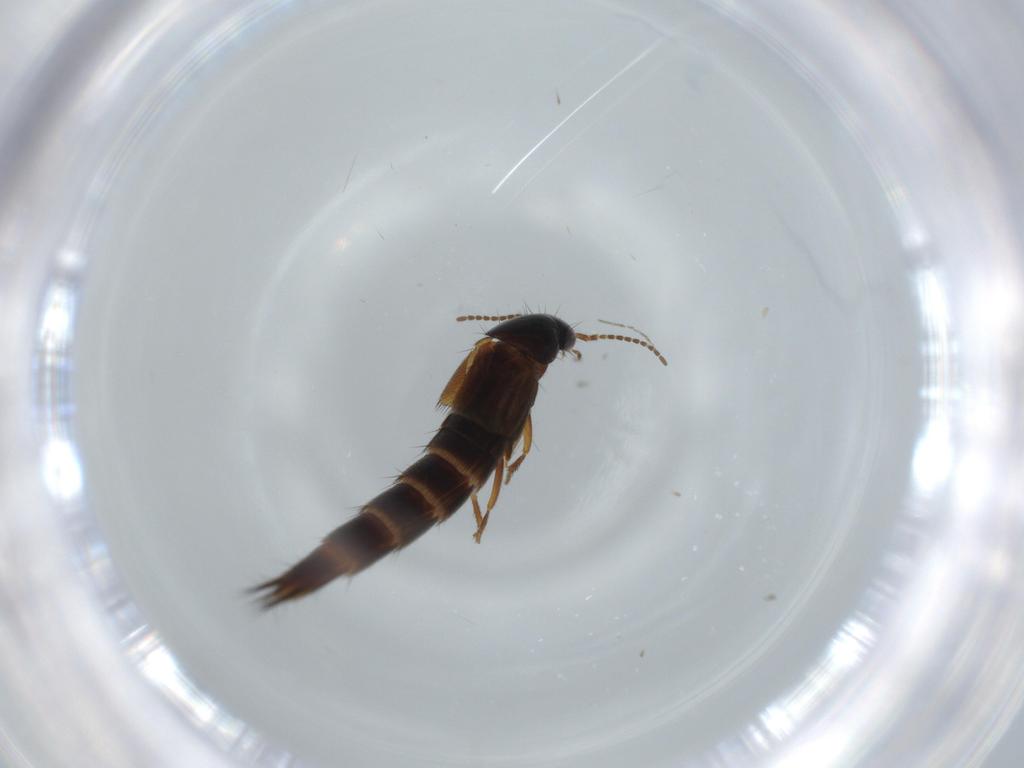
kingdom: Animalia
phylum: Arthropoda
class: Insecta
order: Coleoptera
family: Chrysomelidae
